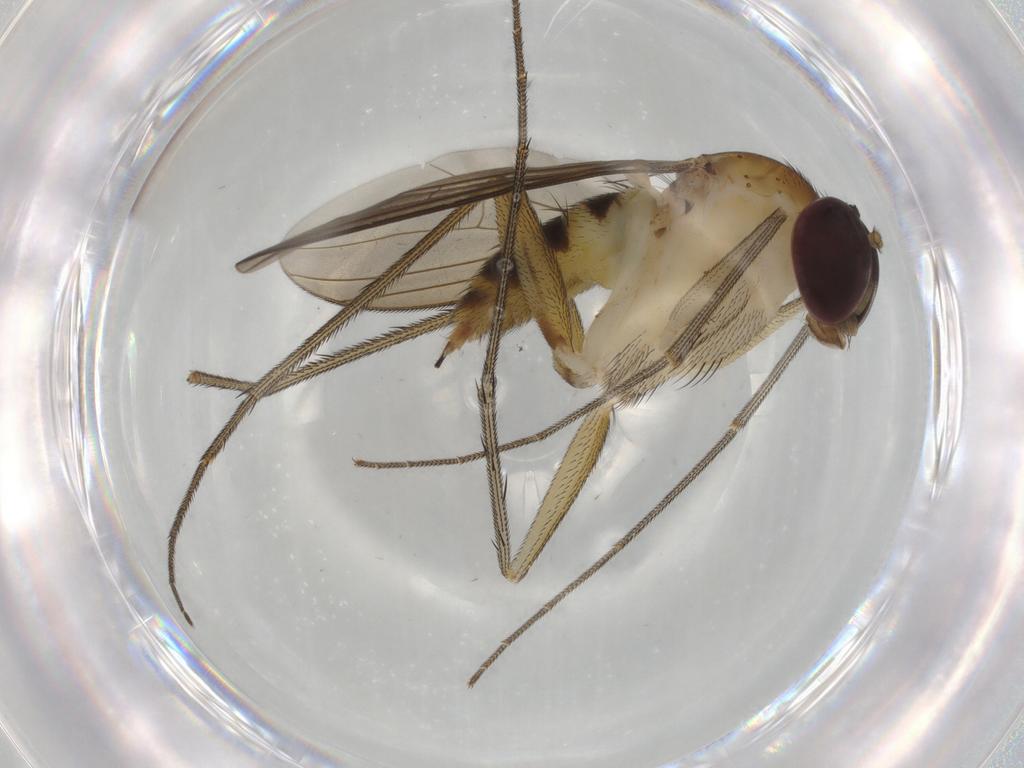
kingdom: Animalia
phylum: Arthropoda
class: Insecta
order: Diptera
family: Dolichopodidae
